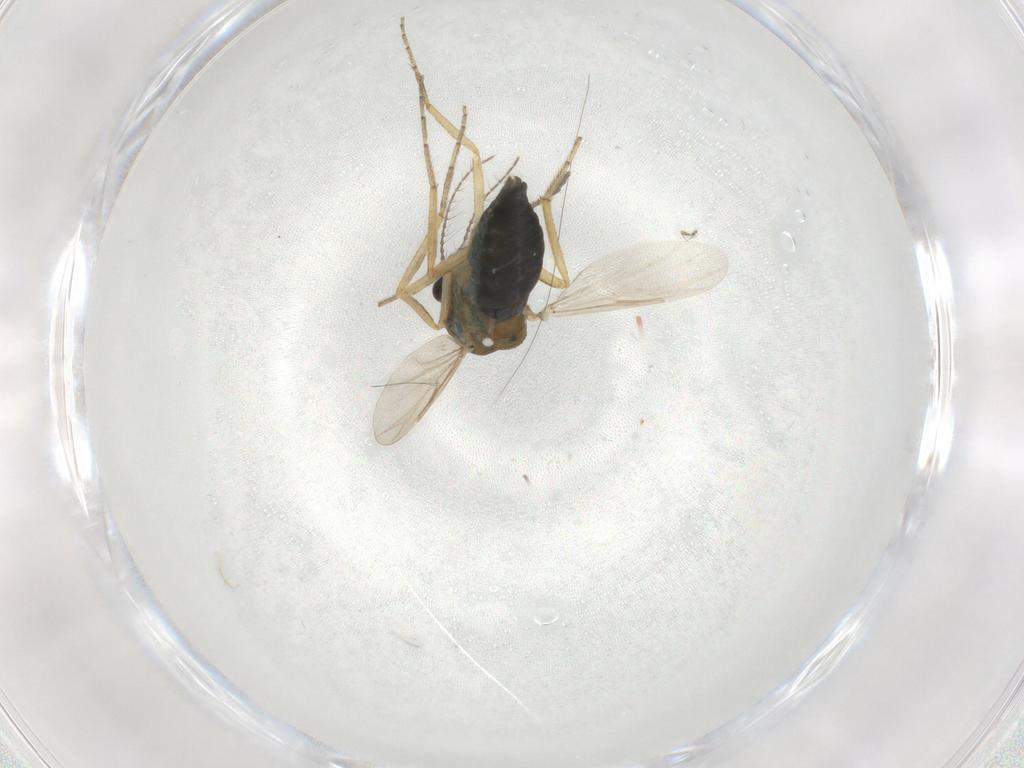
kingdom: Animalia
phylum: Arthropoda
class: Insecta
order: Diptera
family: Ceratopogonidae
